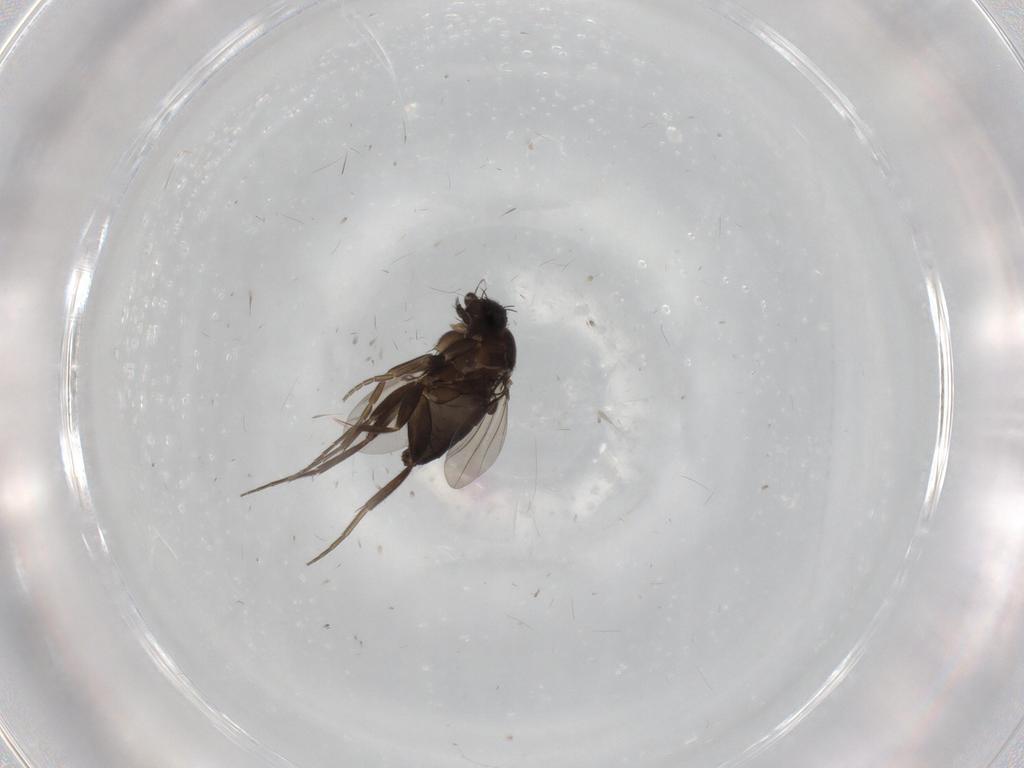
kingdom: Animalia
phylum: Arthropoda
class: Insecta
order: Diptera
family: Phoridae
